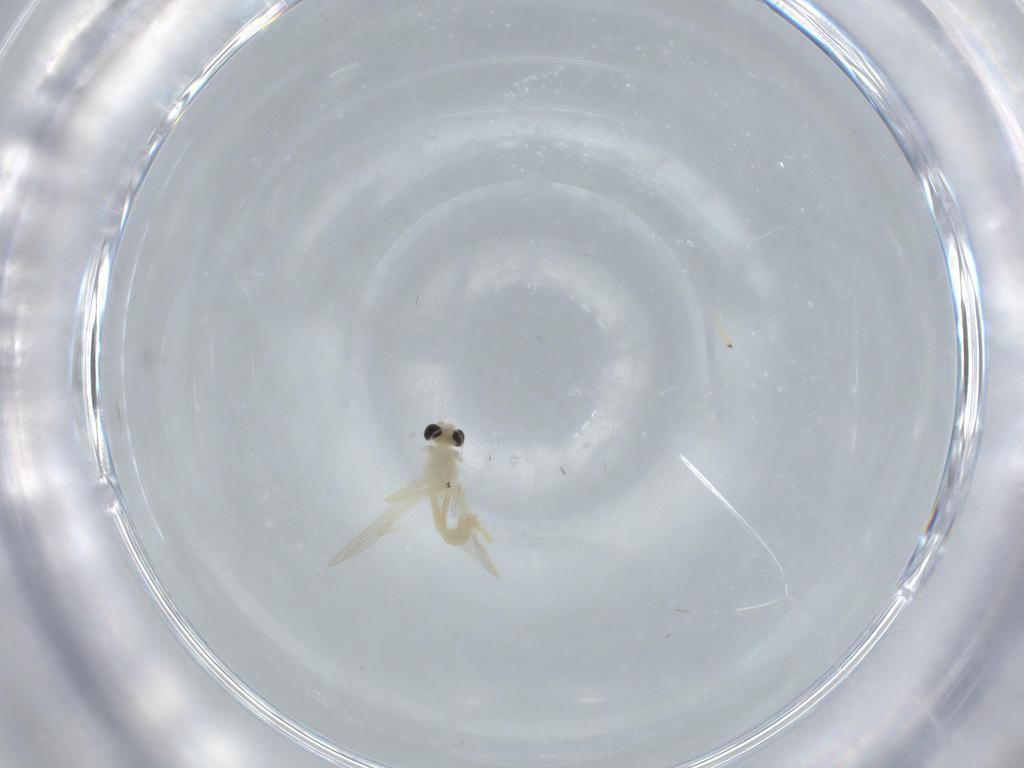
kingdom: Animalia
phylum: Arthropoda
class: Insecta
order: Diptera
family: Chironomidae
